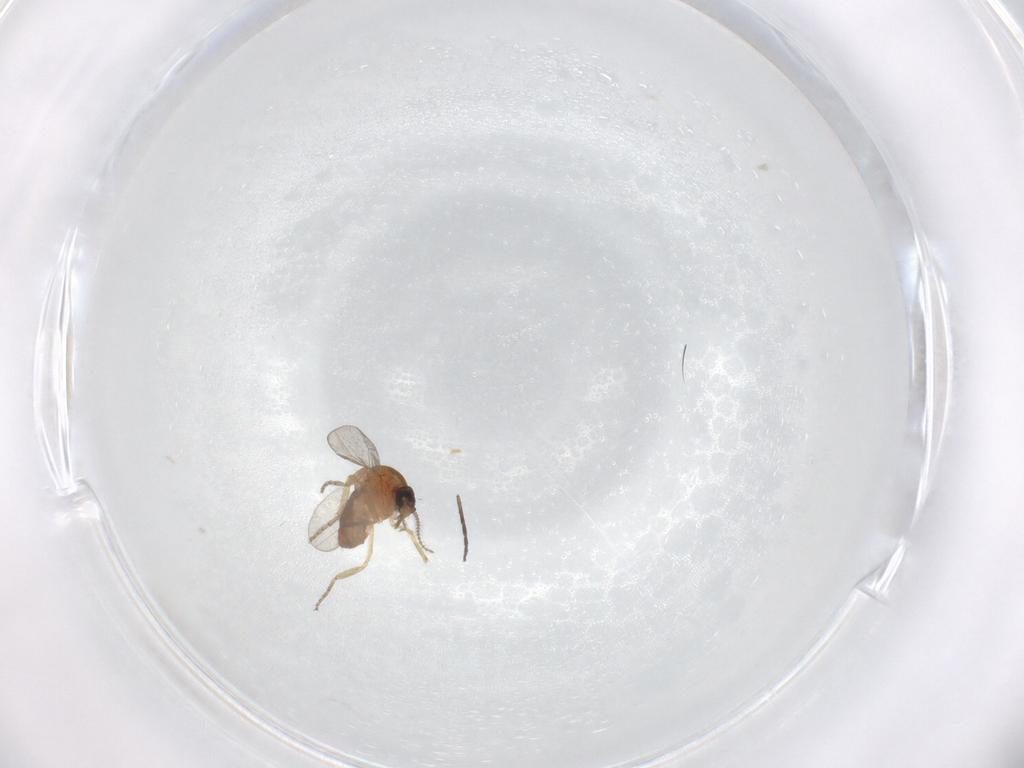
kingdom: Animalia
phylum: Arthropoda
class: Insecta
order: Diptera
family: Ceratopogonidae
